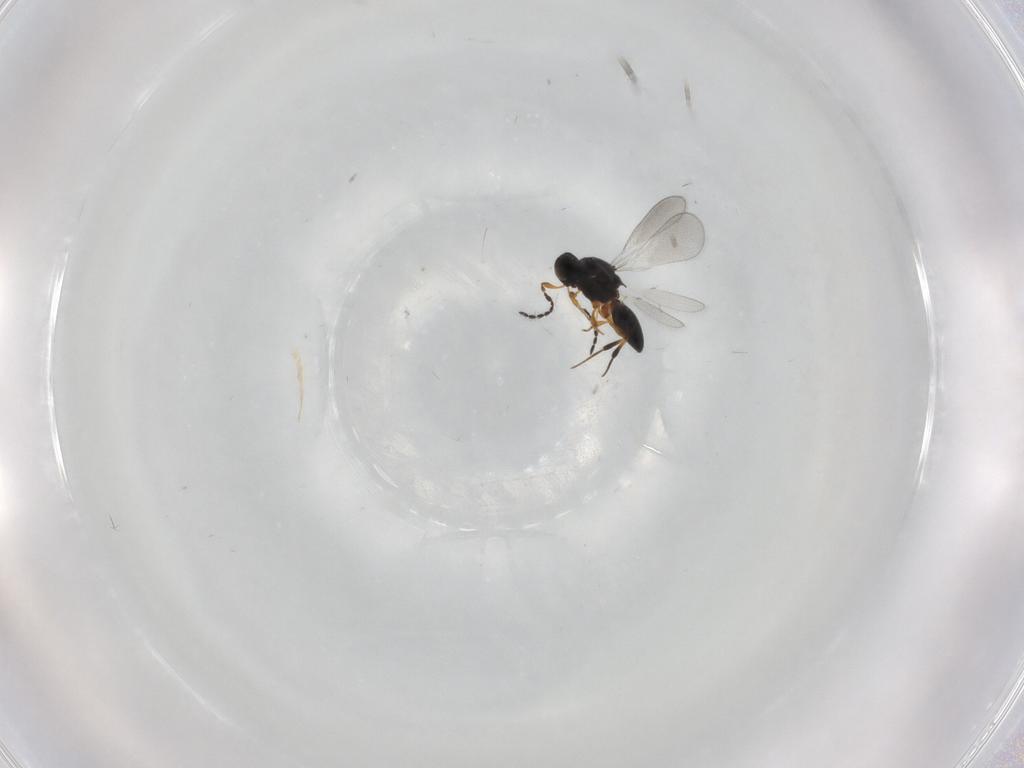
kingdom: Animalia
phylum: Arthropoda
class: Insecta
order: Hymenoptera
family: Platygastridae
